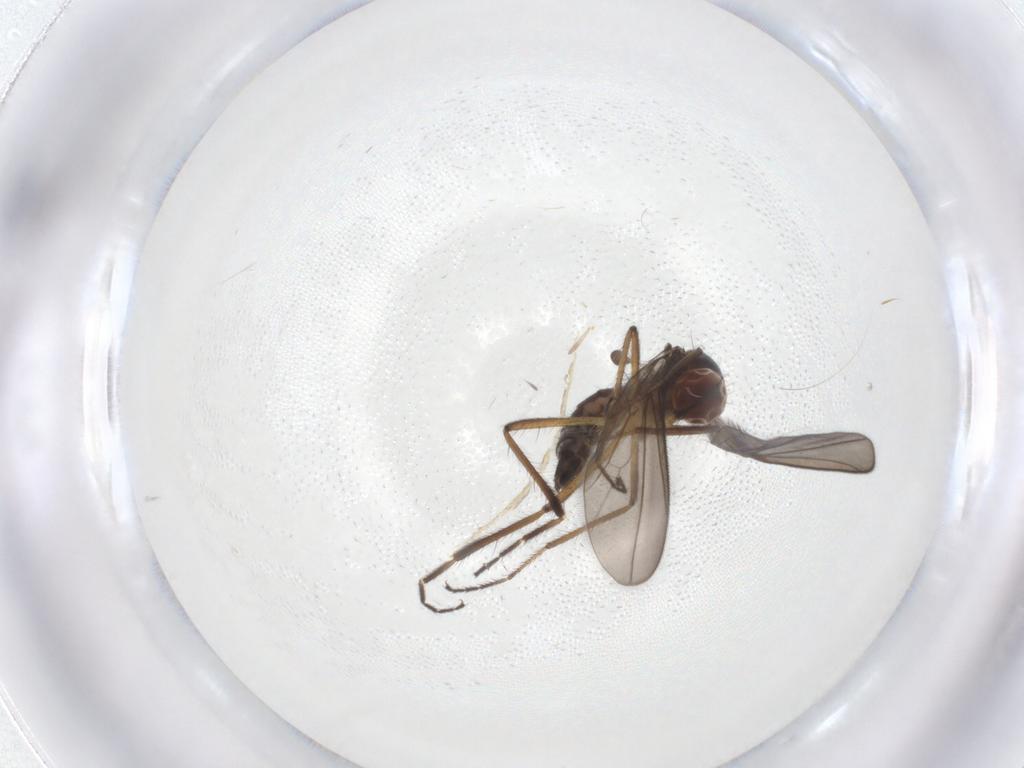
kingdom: Animalia
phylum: Arthropoda
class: Insecta
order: Diptera
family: Hybotidae
